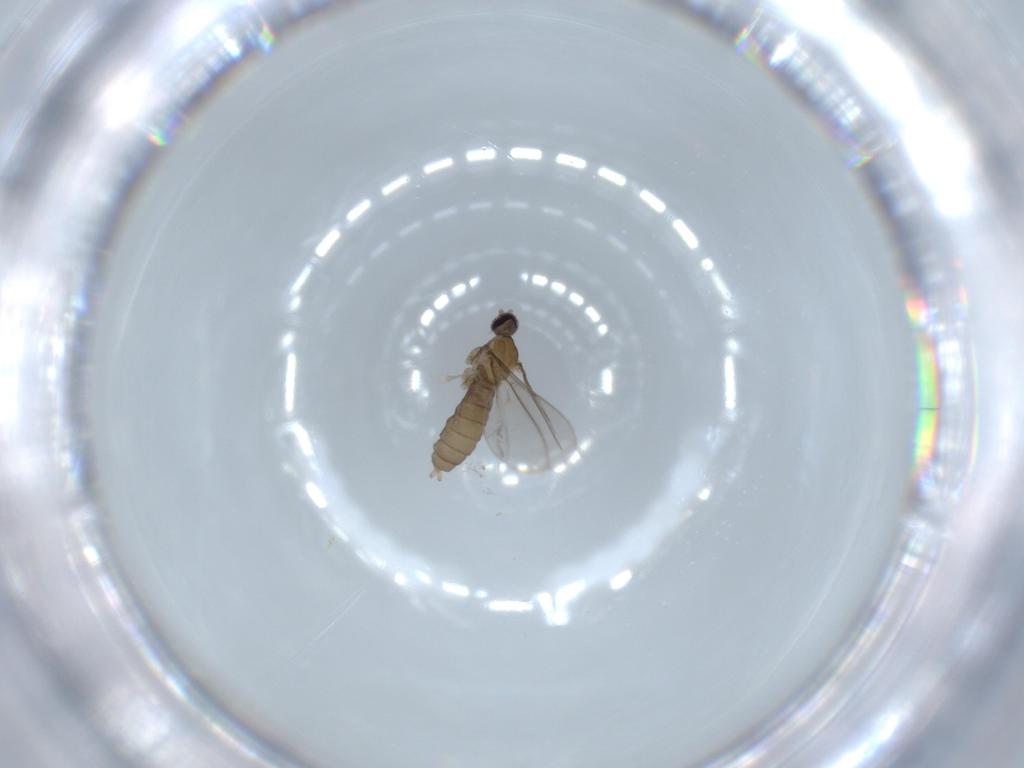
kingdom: Animalia
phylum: Arthropoda
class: Insecta
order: Diptera
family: Cecidomyiidae
